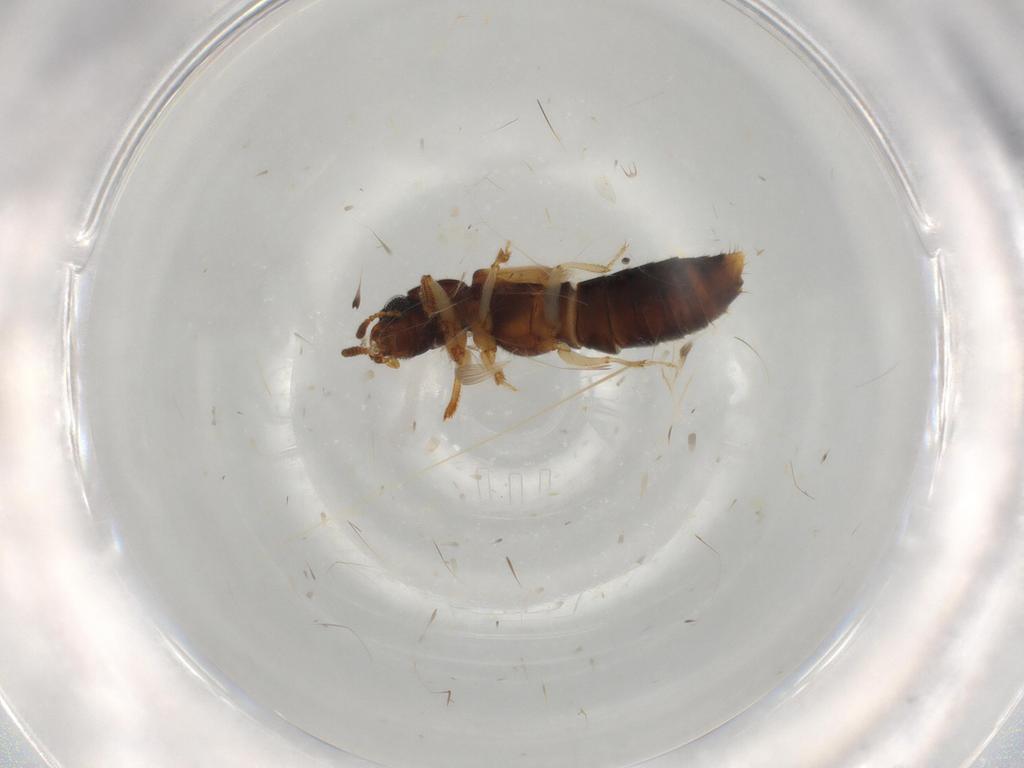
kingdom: Animalia
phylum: Arthropoda
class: Insecta
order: Coleoptera
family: Staphylinidae
